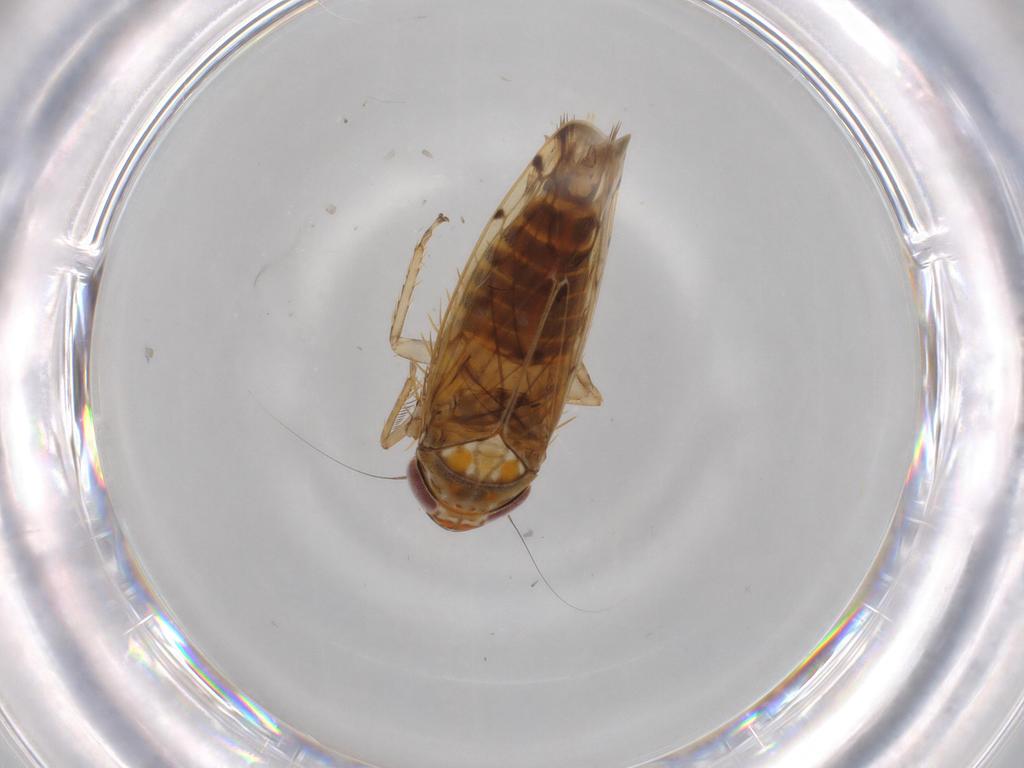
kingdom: Animalia
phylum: Arthropoda
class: Insecta
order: Hemiptera
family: Cicadellidae
